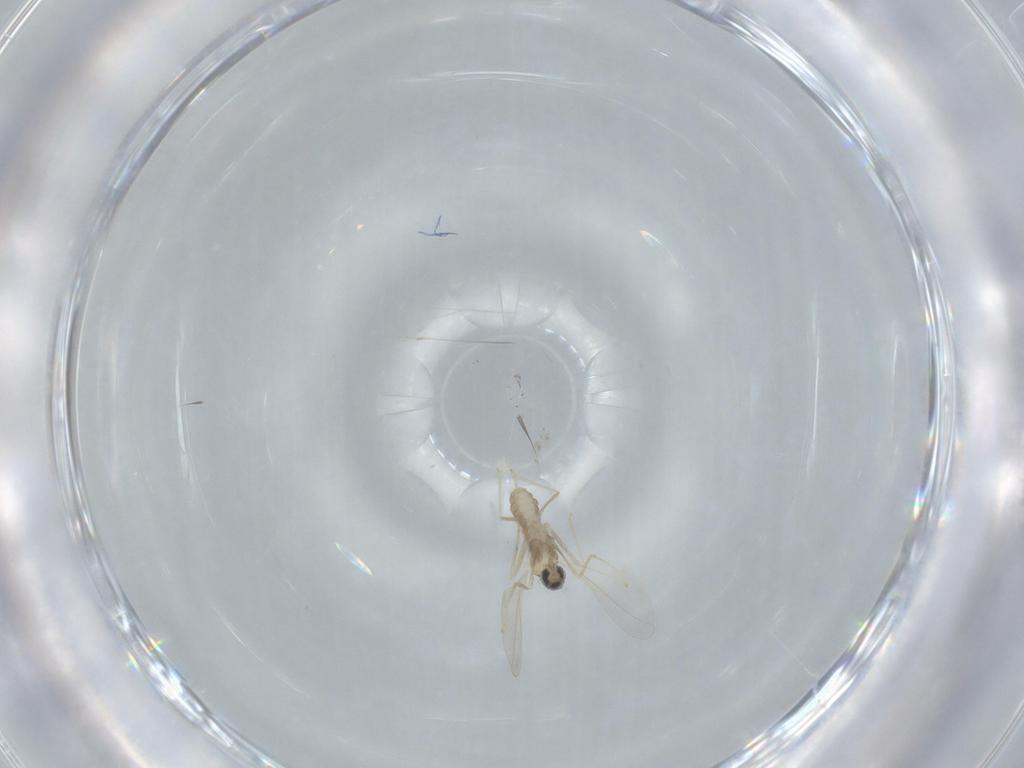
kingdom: Animalia
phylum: Arthropoda
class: Insecta
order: Diptera
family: Cecidomyiidae
